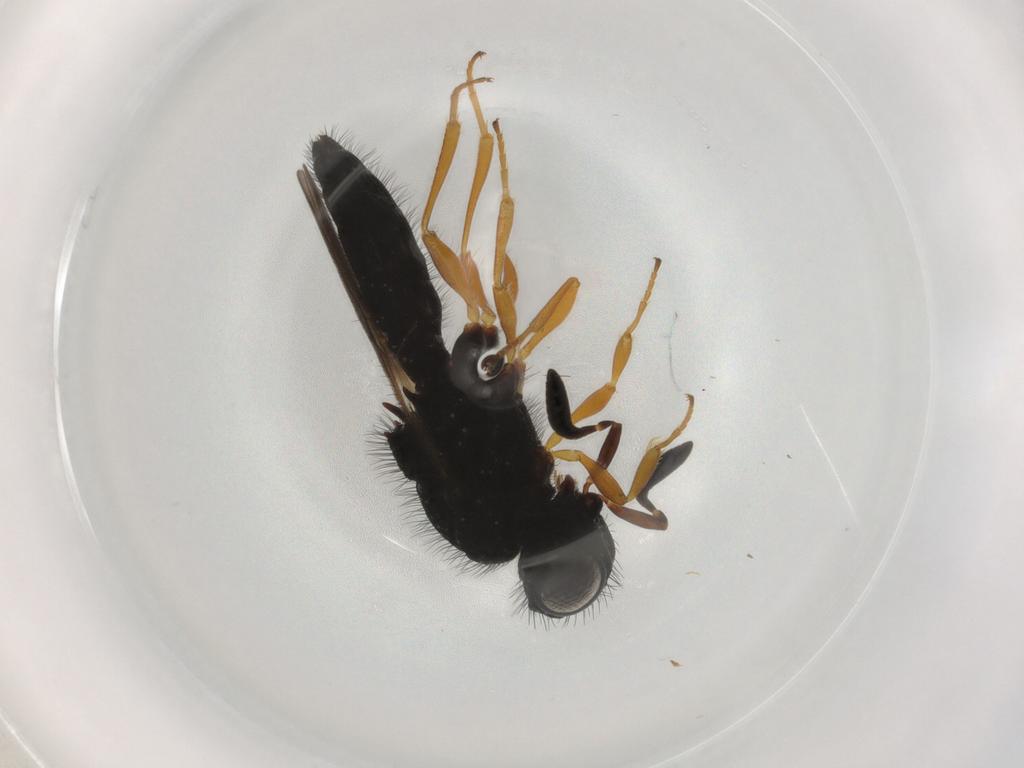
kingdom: Animalia
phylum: Arthropoda
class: Insecta
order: Hymenoptera
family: Scelionidae
